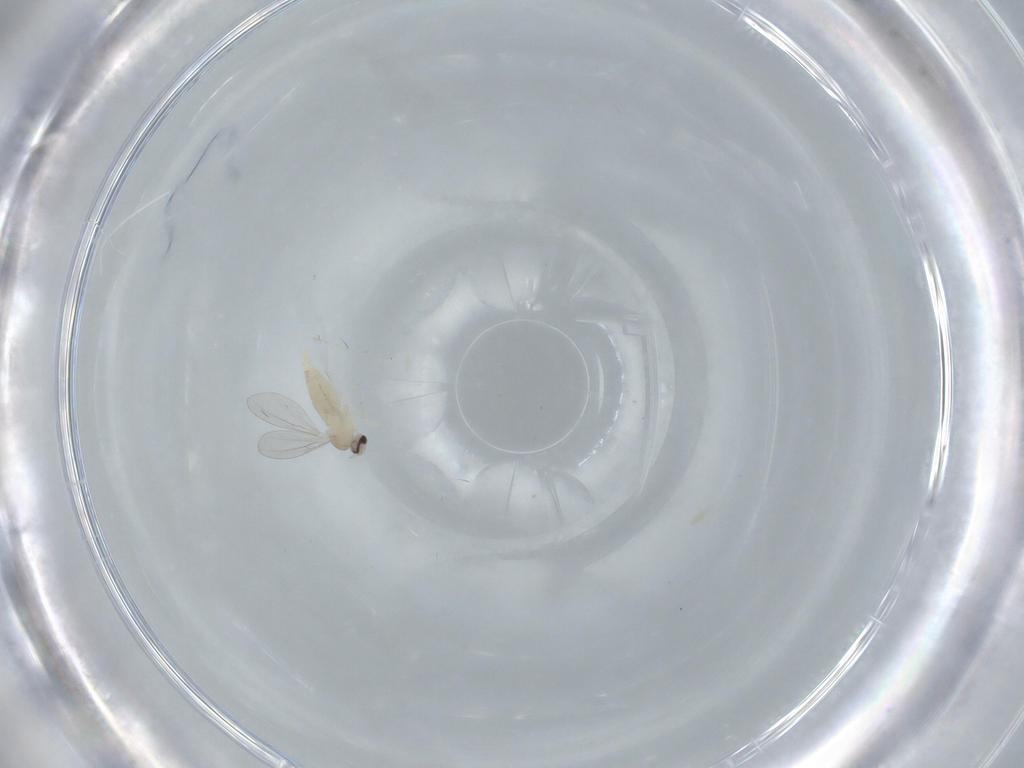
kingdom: Animalia
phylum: Arthropoda
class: Insecta
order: Diptera
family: Cecidomyiidae
